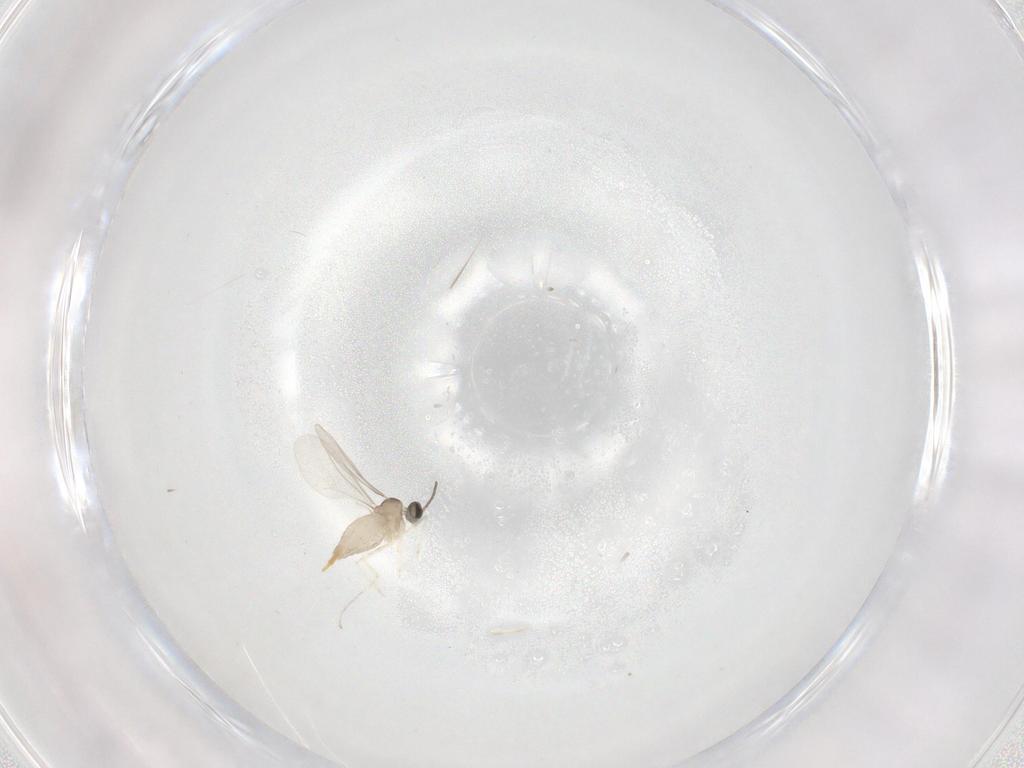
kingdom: Animalia
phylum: Arthropoda
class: Insecta
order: Diptera
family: Cecidomyiidae
